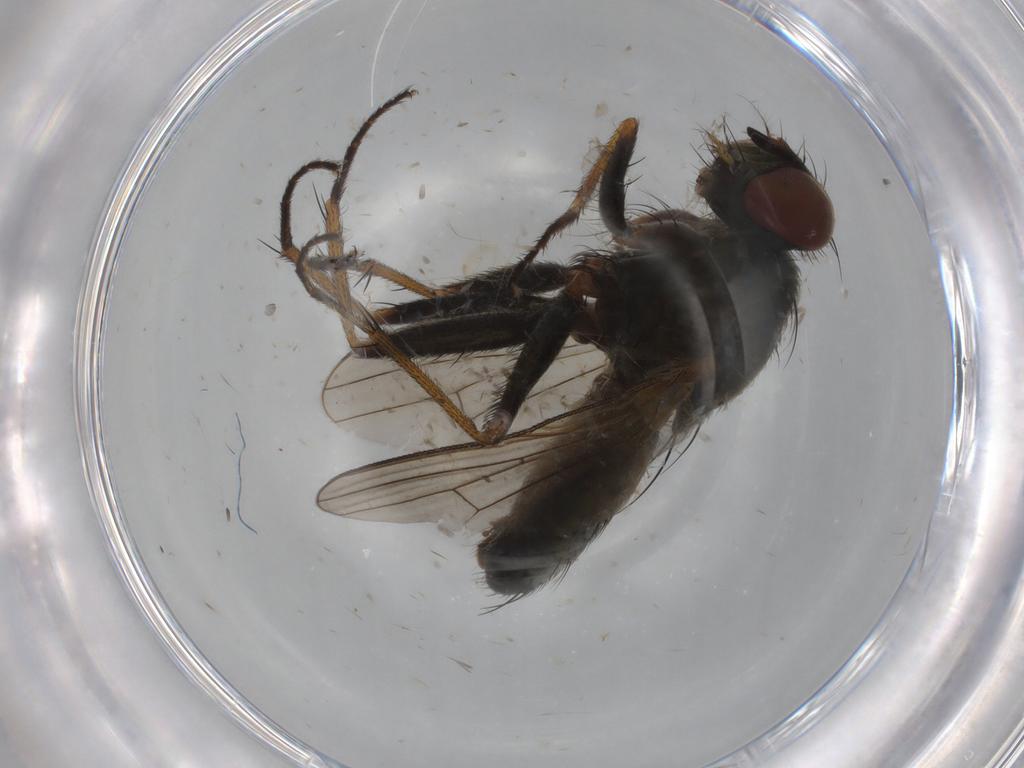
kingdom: Animalia
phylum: Arthropoda
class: Insecta
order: Diptera
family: Muscidae
